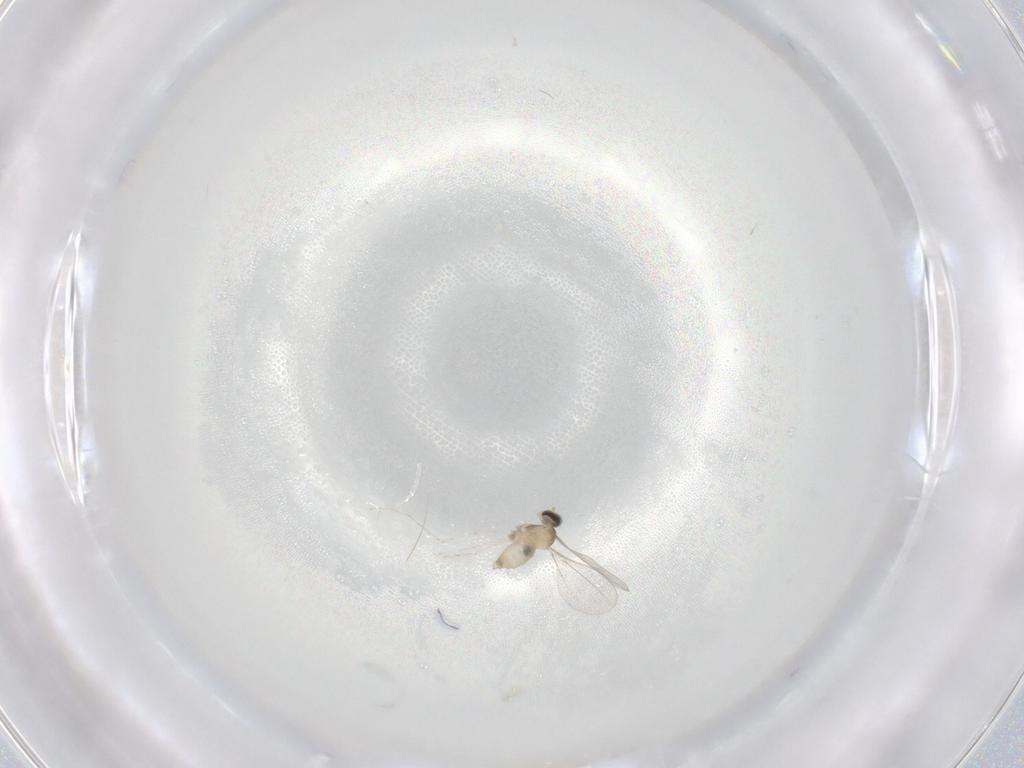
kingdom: Animalia
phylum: Arthropoda
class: Insecta
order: Diptera
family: Cecidomyiidae
